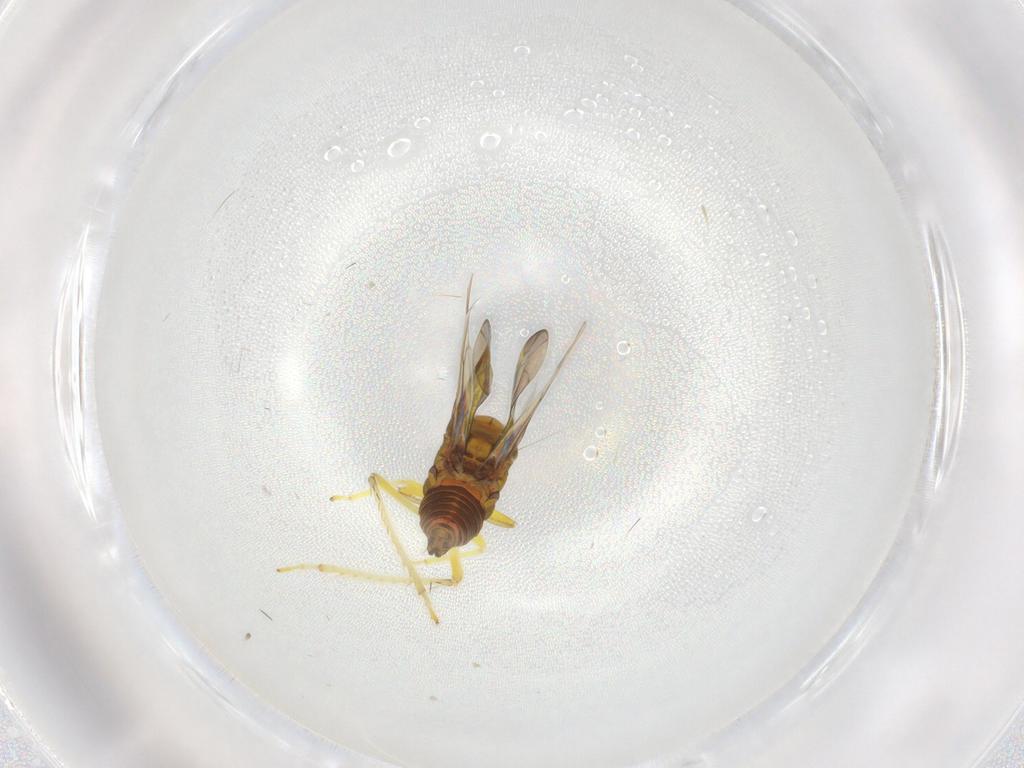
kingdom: Animalia
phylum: Arthropoda
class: Insecta
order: Hemiptera
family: Cicadellidae
